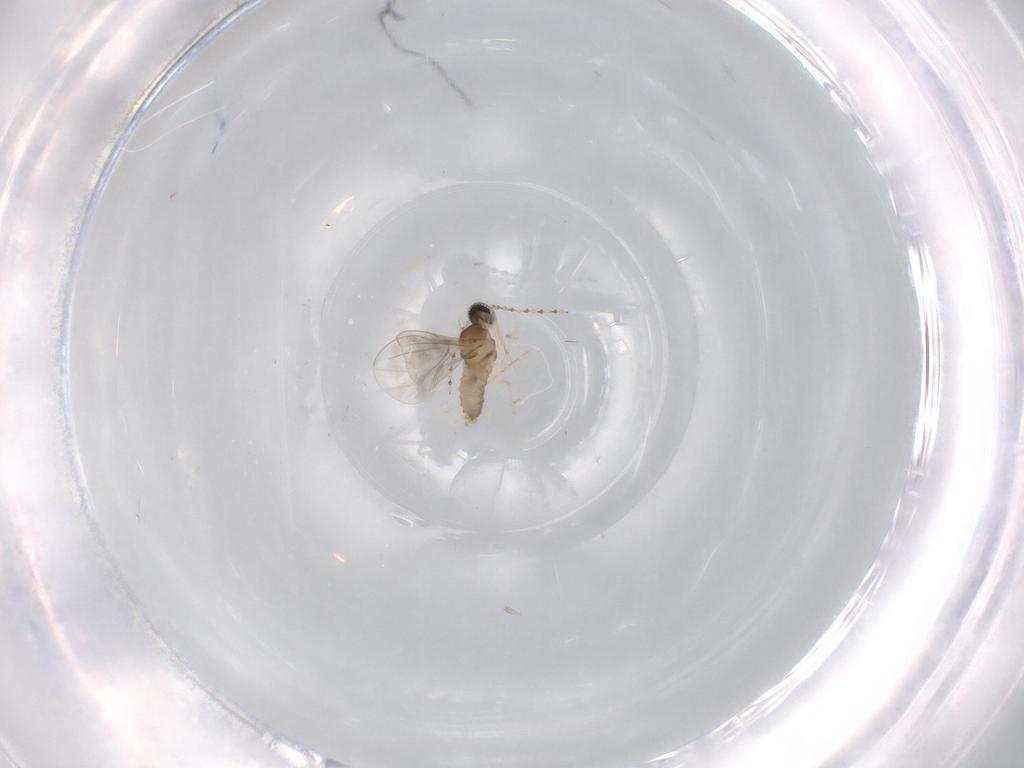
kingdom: Animalia
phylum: Arthropoda
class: Insecta
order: Diptera
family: Cecidomyiidae
